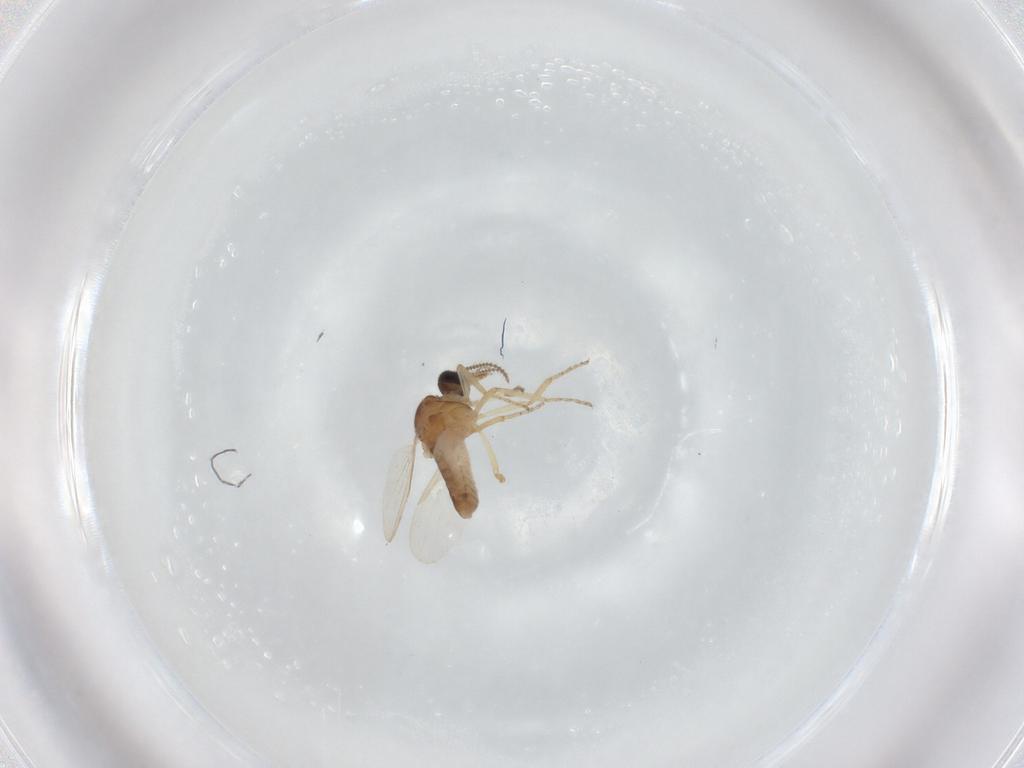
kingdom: Animalia
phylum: Arthropoda
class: Insecta
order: Diptera
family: Ceratopogonidae
